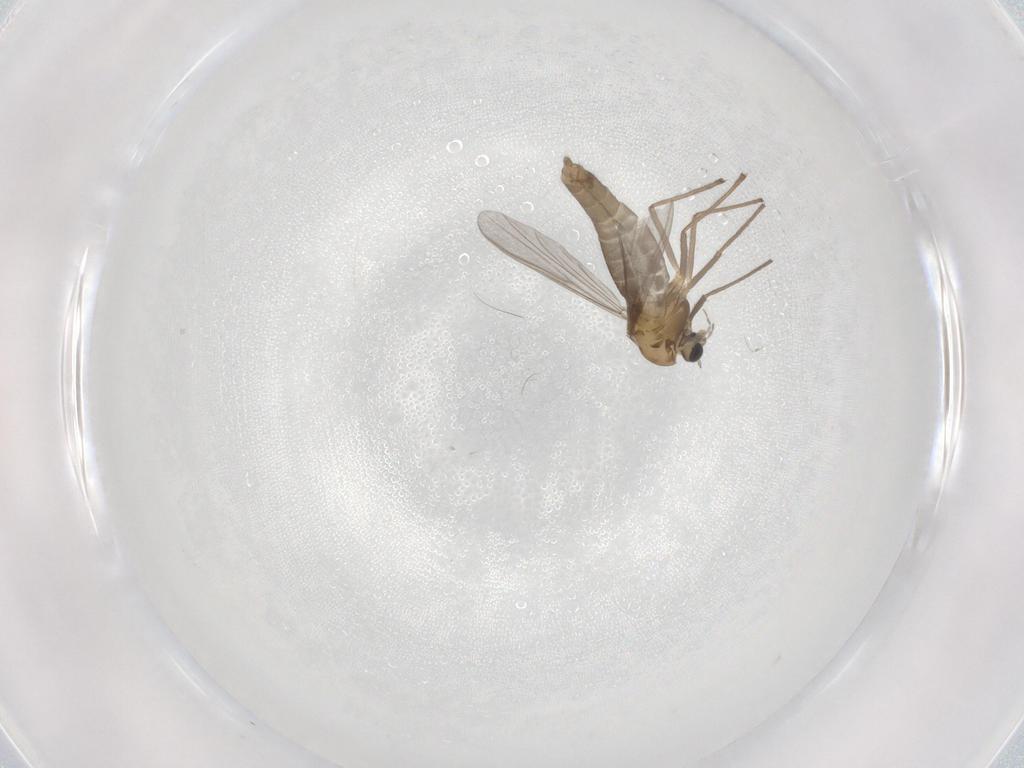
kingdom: Animalia
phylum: Arthropoda
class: Insecta
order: Diptera
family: Chironomidae
